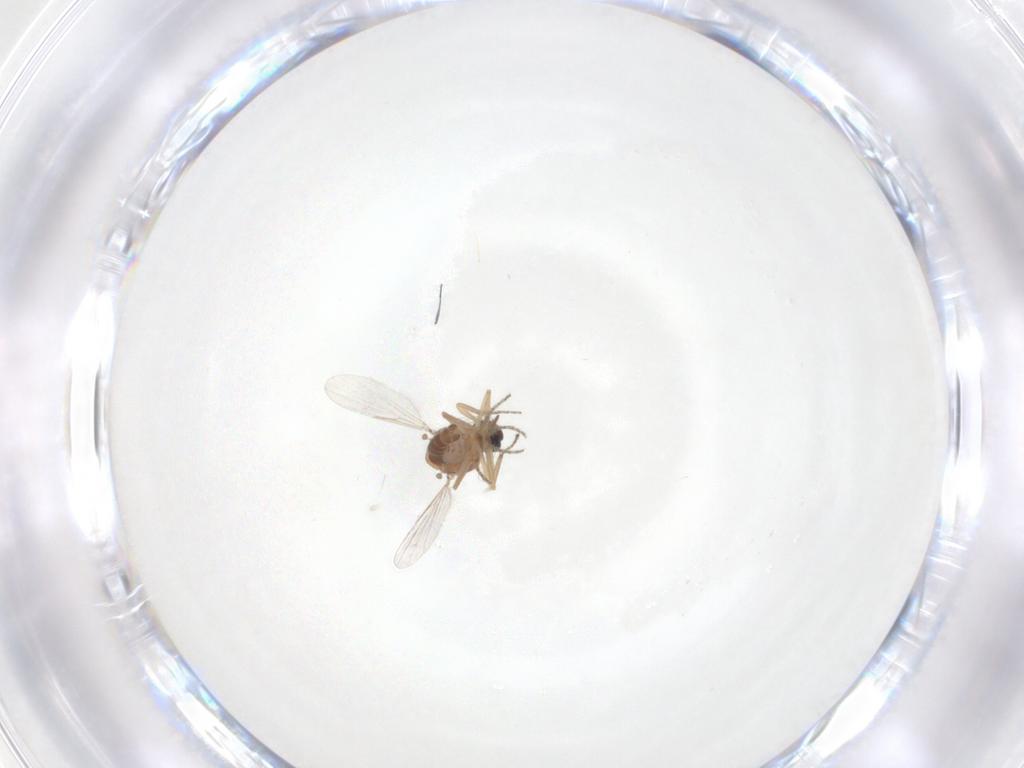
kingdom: Animalia
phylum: Arthropoda
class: Insecta
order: Diptera
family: Ceratopogonidae
